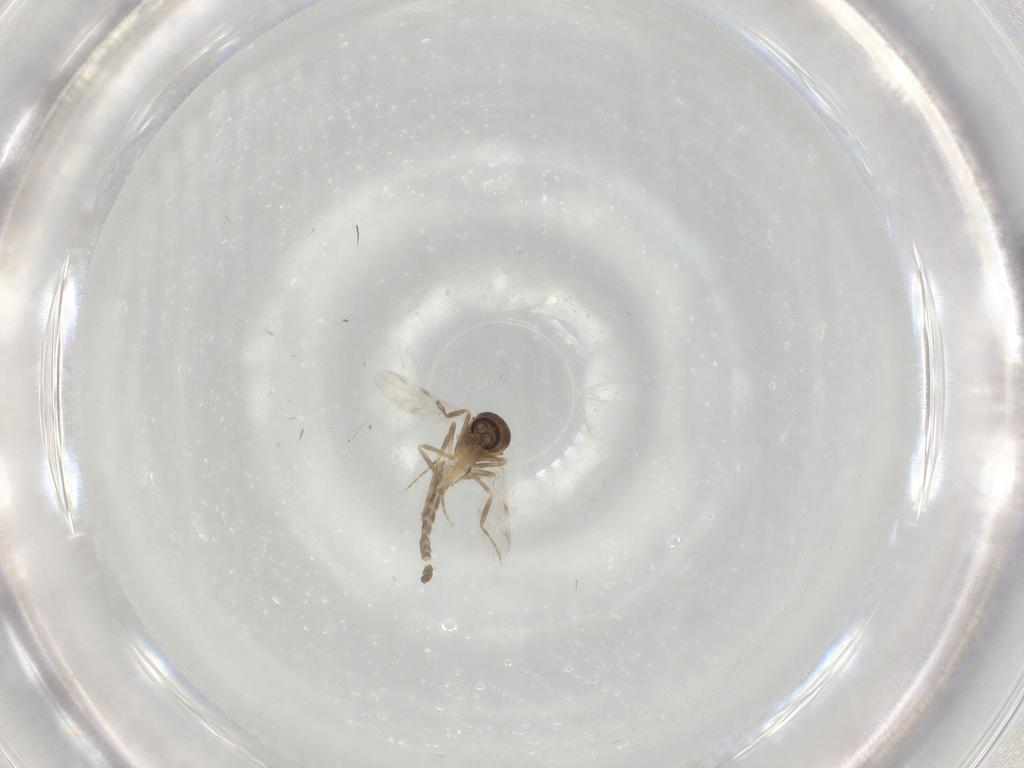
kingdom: Animalia
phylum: Arthropoda
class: Insecta
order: Diptera
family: Ceratopogonidae
